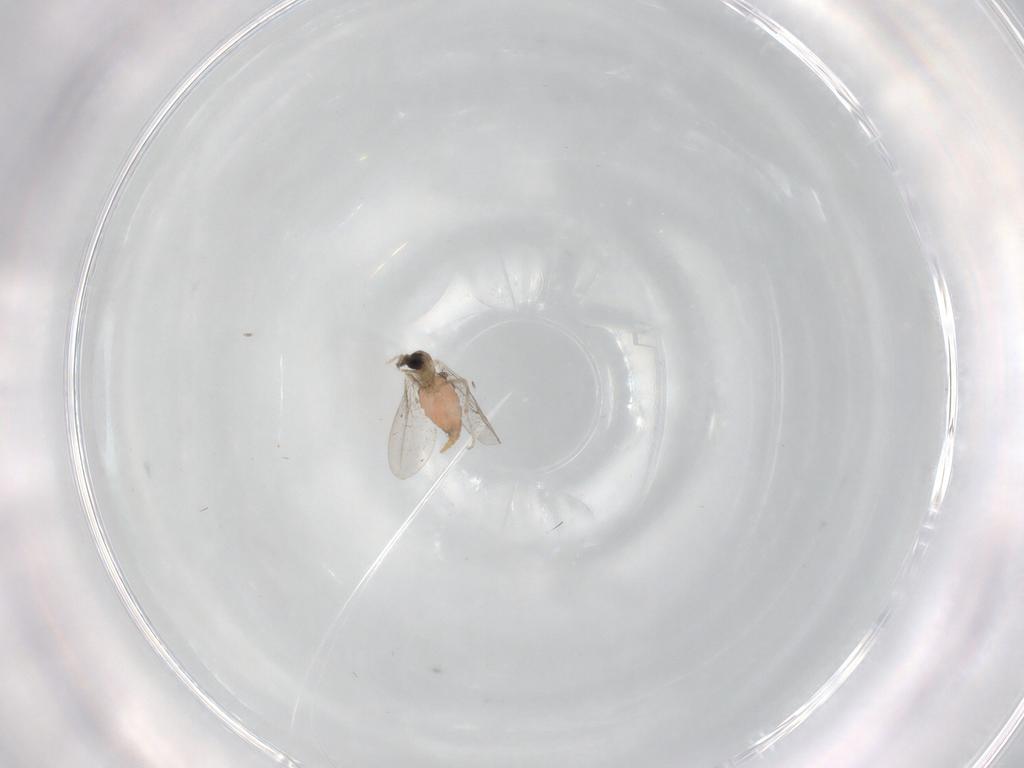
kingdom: Animalia
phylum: Arthropoda
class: Insecta
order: Diptera
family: Cecidomyiidae
